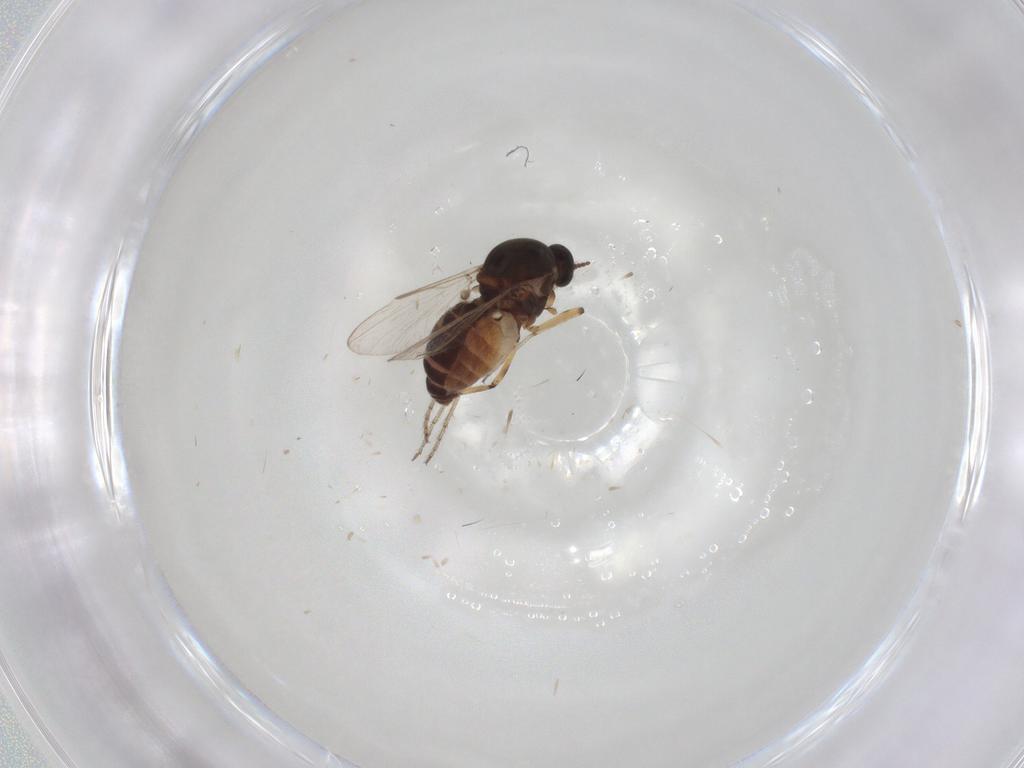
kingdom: Animalia
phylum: Arthropoda
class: Insecta
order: Diptera
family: Ceratopogonidae
